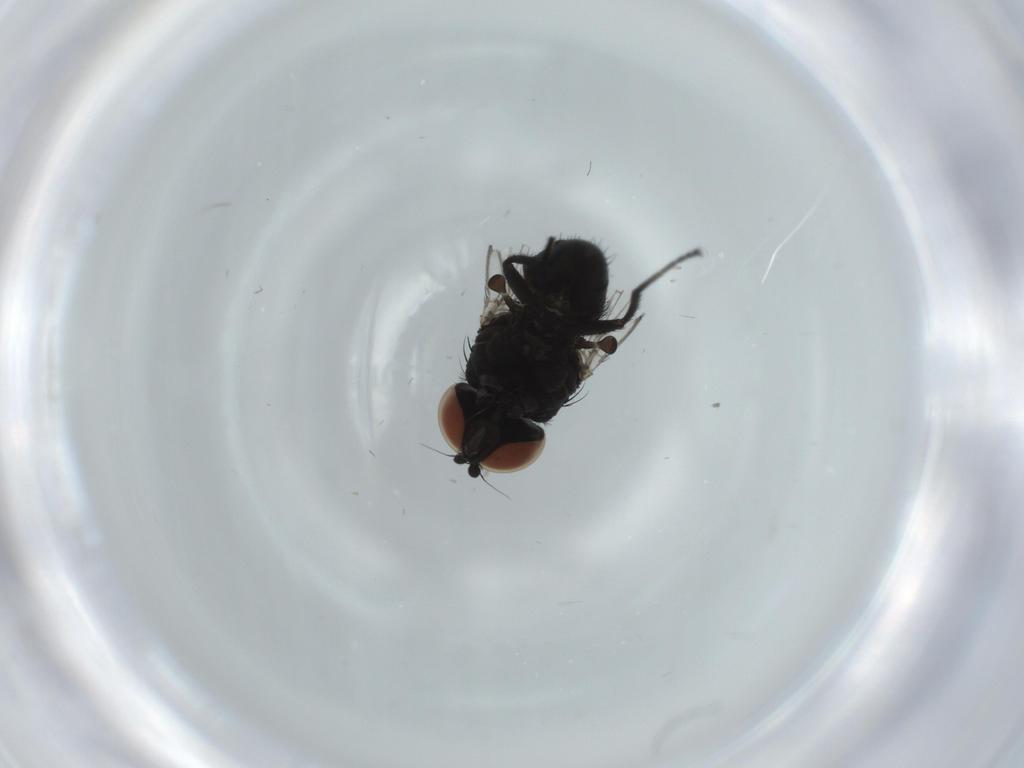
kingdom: Animalia
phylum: Arthropoda
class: Insecta
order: Diptera
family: Milichiidae
